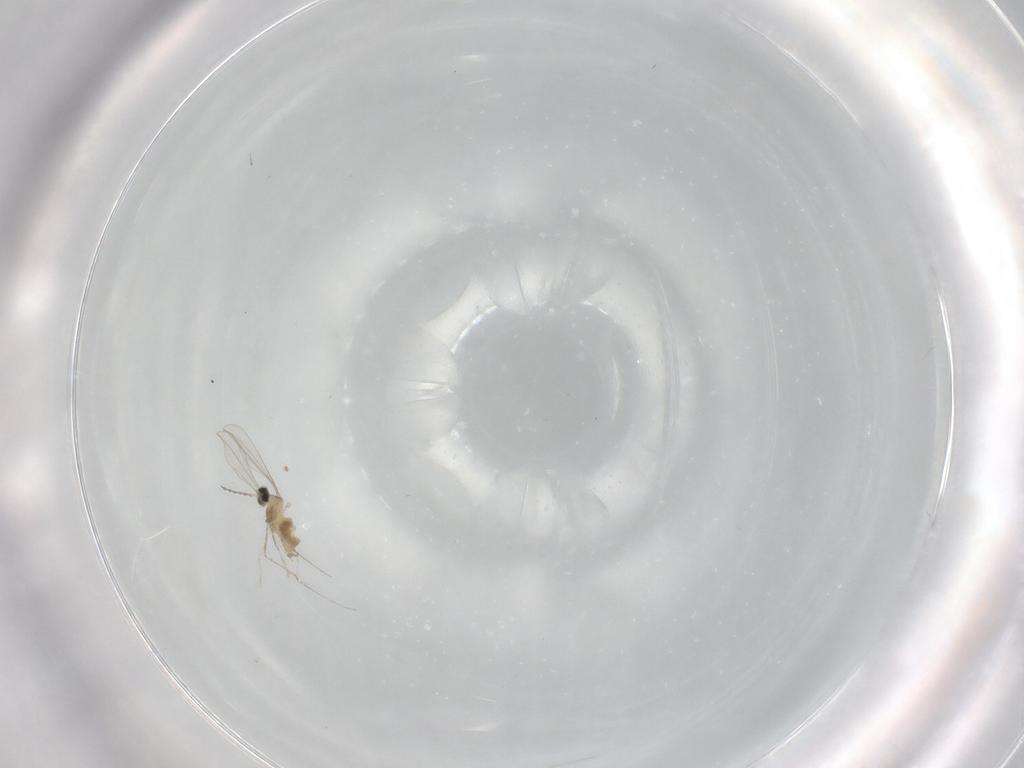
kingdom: Animalia
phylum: Arthropoda
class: Insecta
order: Diptera
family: Cecidomyiidae
